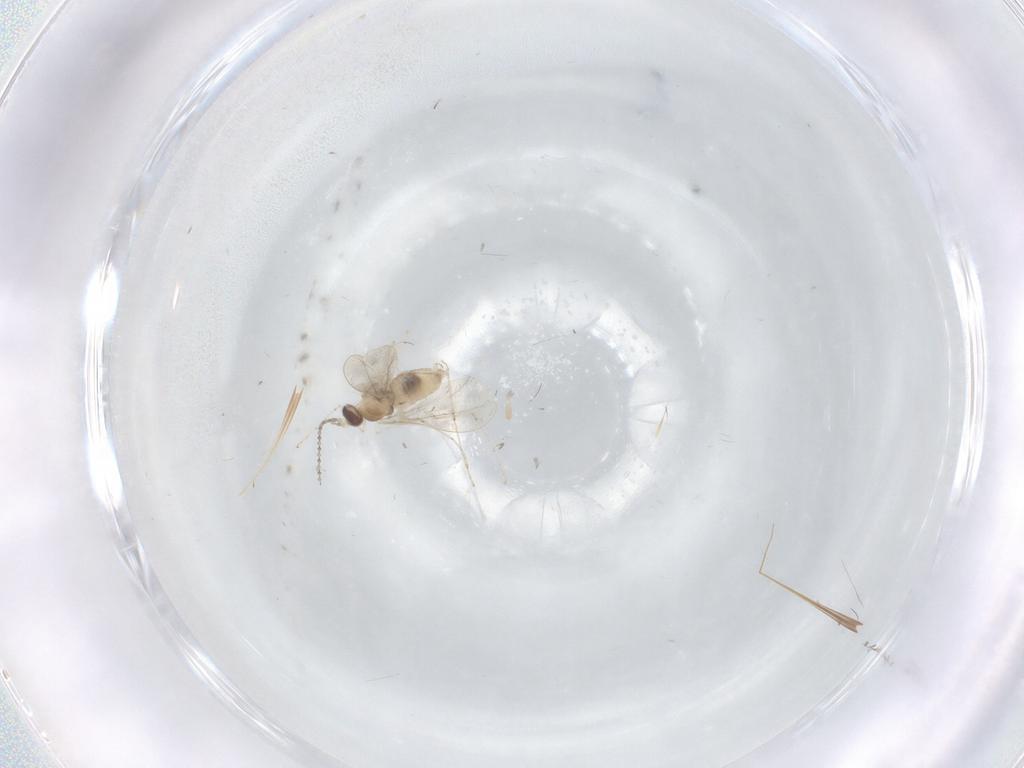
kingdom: Animalia
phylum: Arthropoda
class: Insecta
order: Diptera
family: Cecidomyiidae
